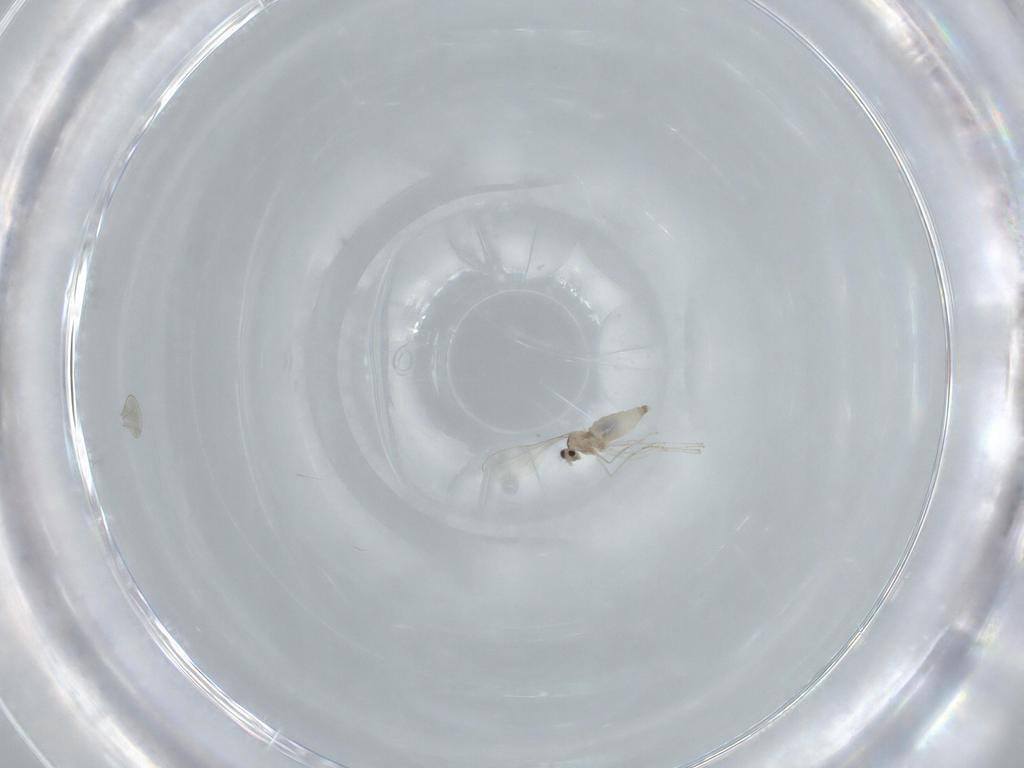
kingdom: Animalia
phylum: Arthropoda
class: Insecta
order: Diptera
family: Cecidomyiidae
